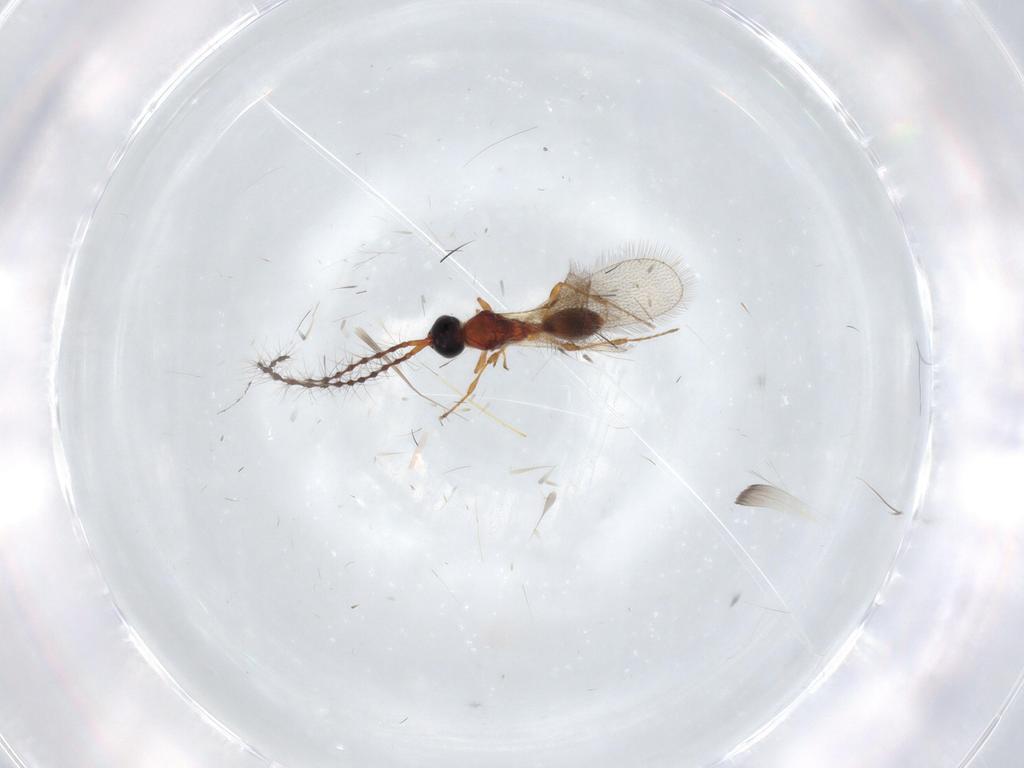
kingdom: Animalia
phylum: Arthropoda
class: Insecta
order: Hymenoptera
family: Diapriidae
